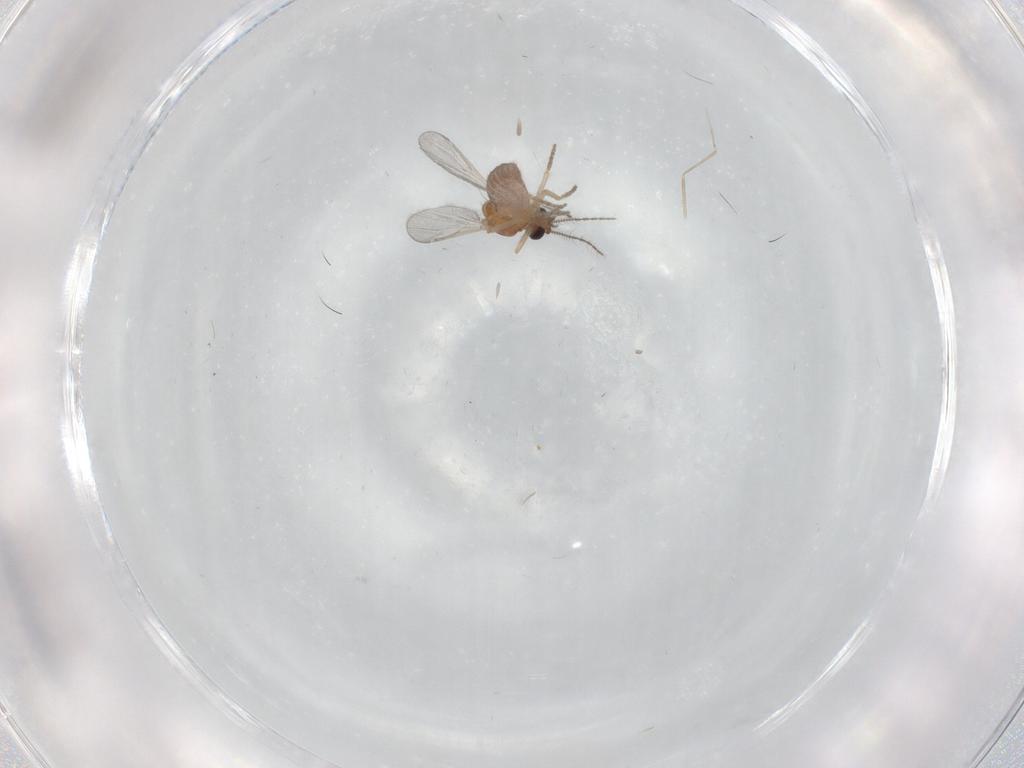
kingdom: Animalia
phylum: Arthropoda
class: Insecta
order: Diptera
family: Ceratopogonidae
